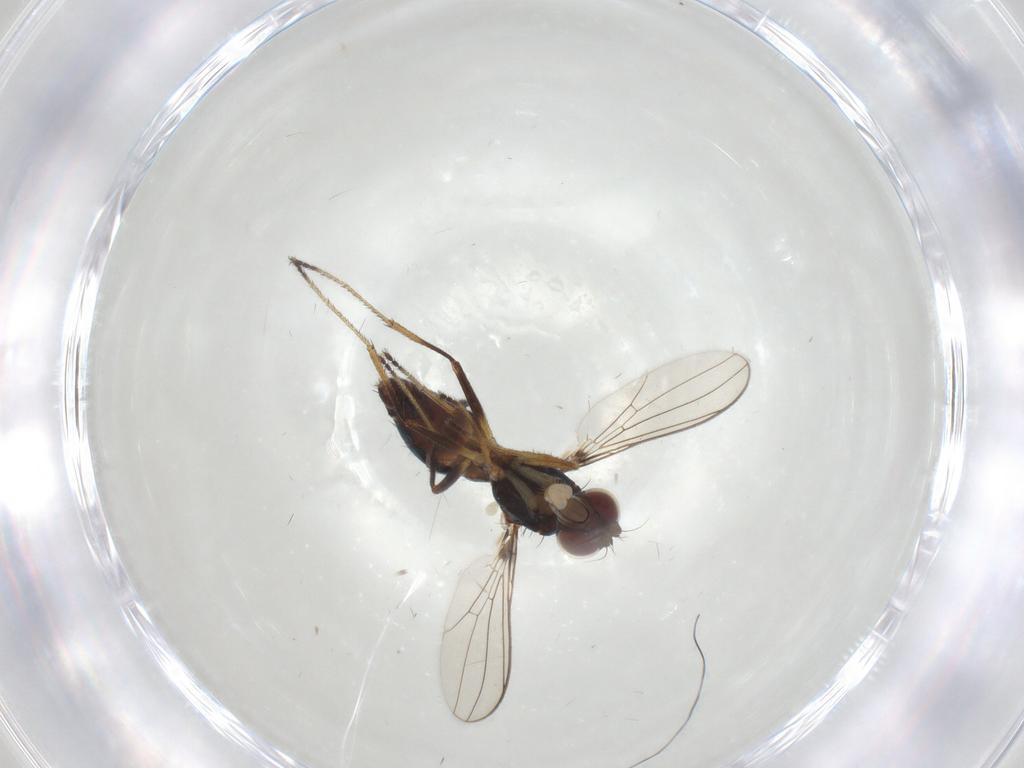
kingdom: Animalia
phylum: Arthropoda
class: Insecta
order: Diptera
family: Sepsidae
